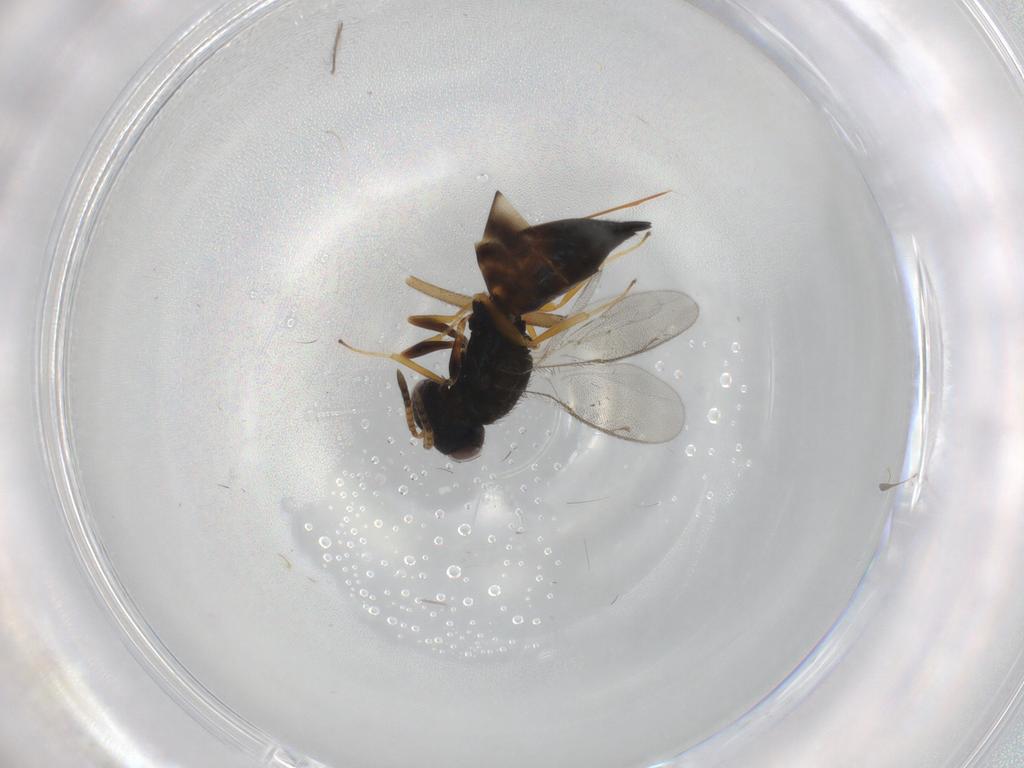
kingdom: Animalia
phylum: Arthropoda
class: Insecta
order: Hymenoptera
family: Pteromalidae
